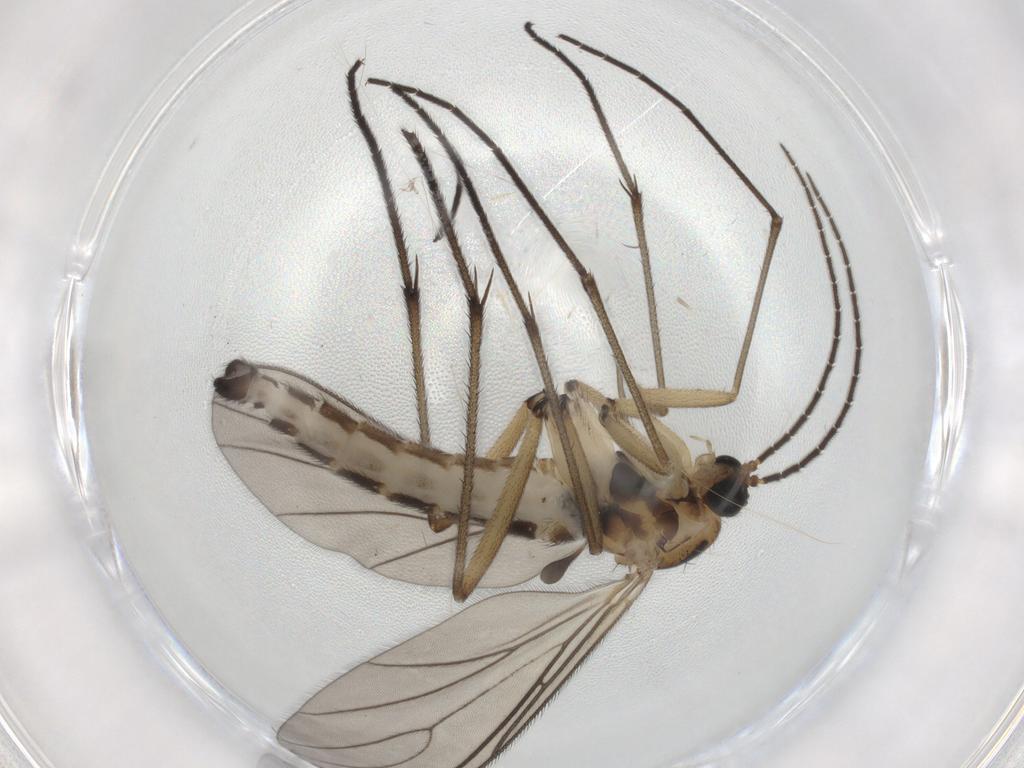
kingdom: Animalia
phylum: Arthropoda
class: Insecta
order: Diptera
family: Sciaridae
